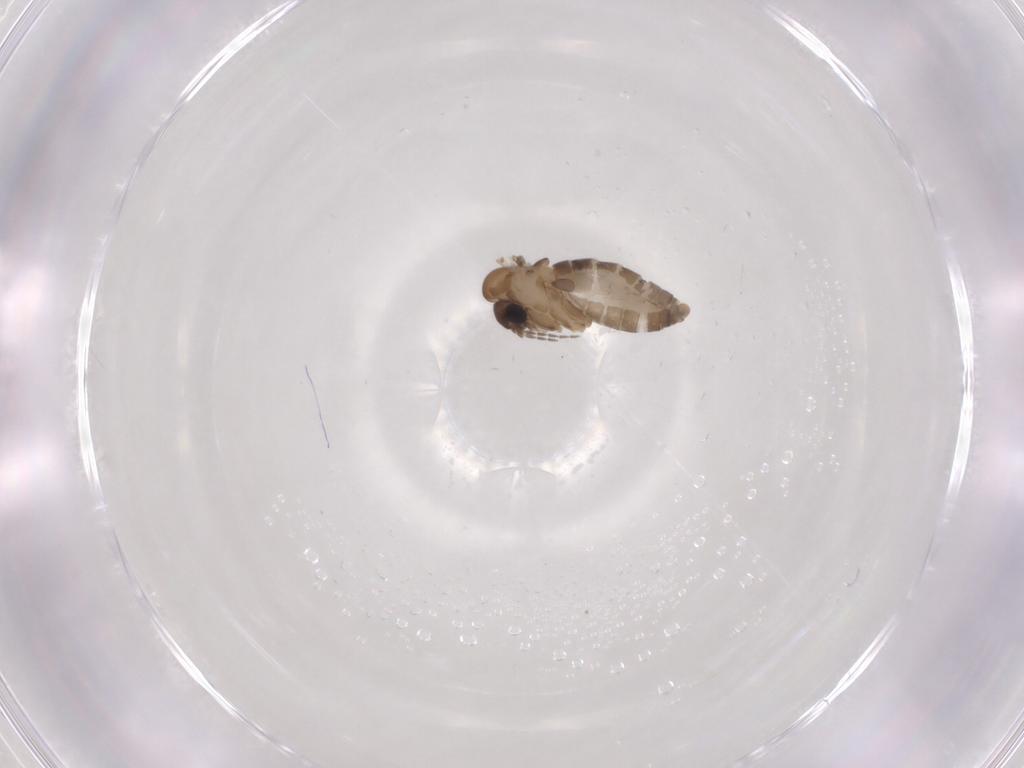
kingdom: Animalia
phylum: Arthropoda
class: Insecta
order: Diptera
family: Psychodidae
